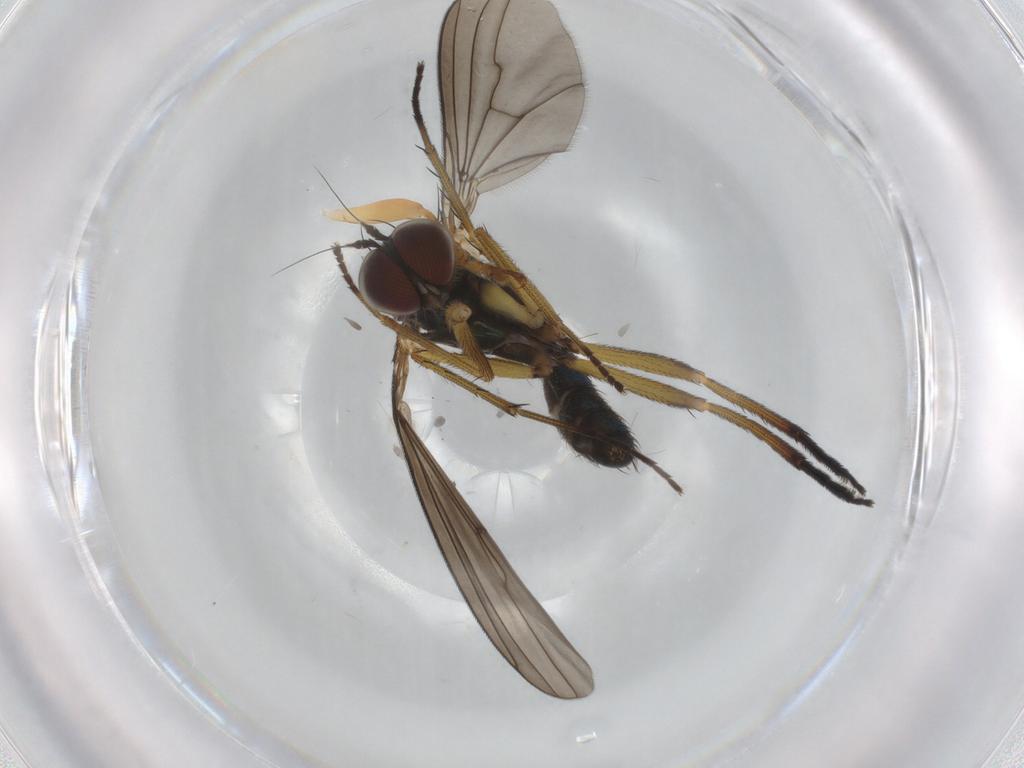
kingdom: Animalia
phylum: Arthropoda
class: Insecta
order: Diptera
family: Dolichopodidae
